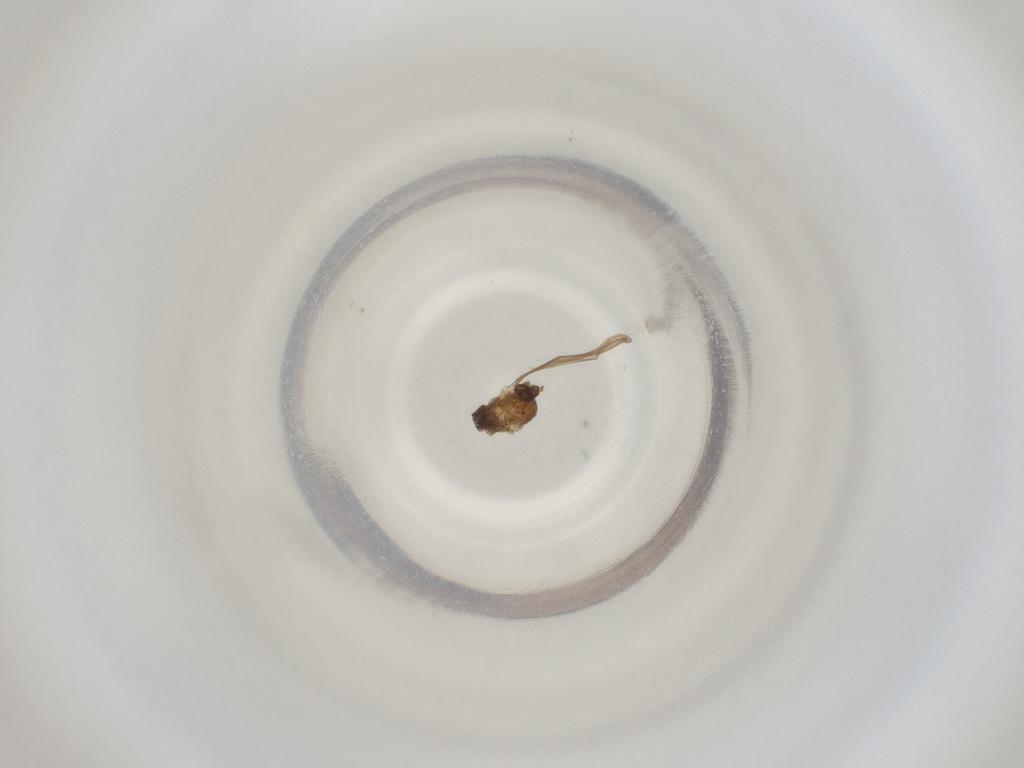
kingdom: Animalia
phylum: Arthropoda
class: Insecta
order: Diptera
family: Cecidomyiidae
